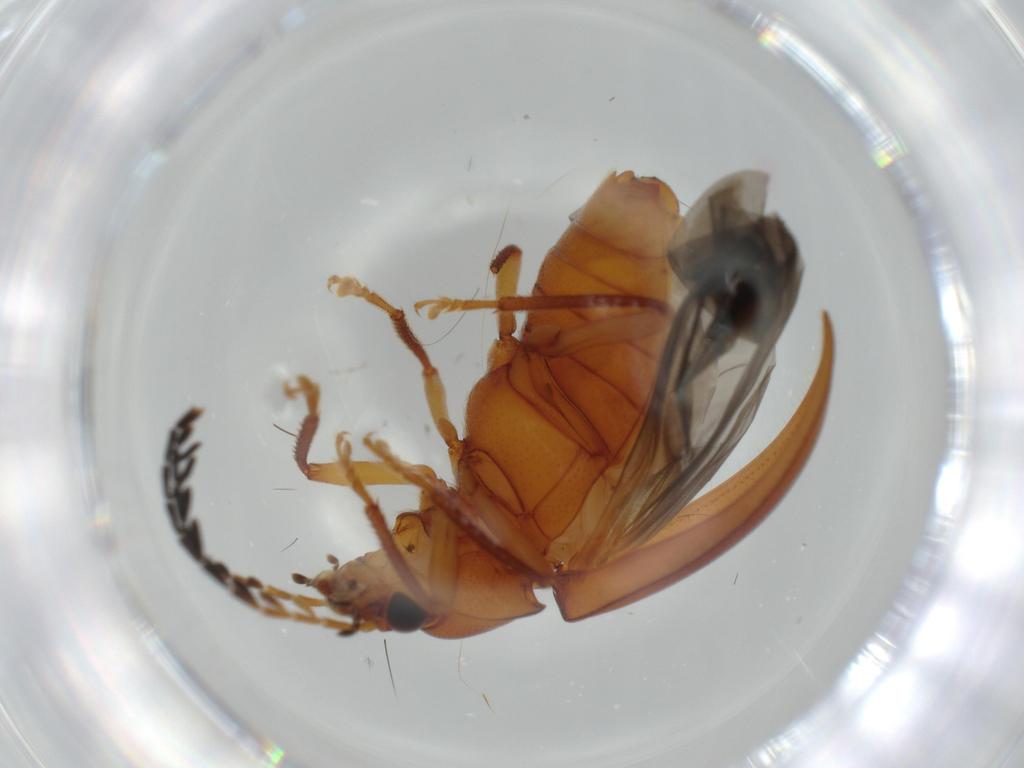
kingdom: Animalia
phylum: Arthropoda
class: Insecta
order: Coleoptera
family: Ptilodactylidae
